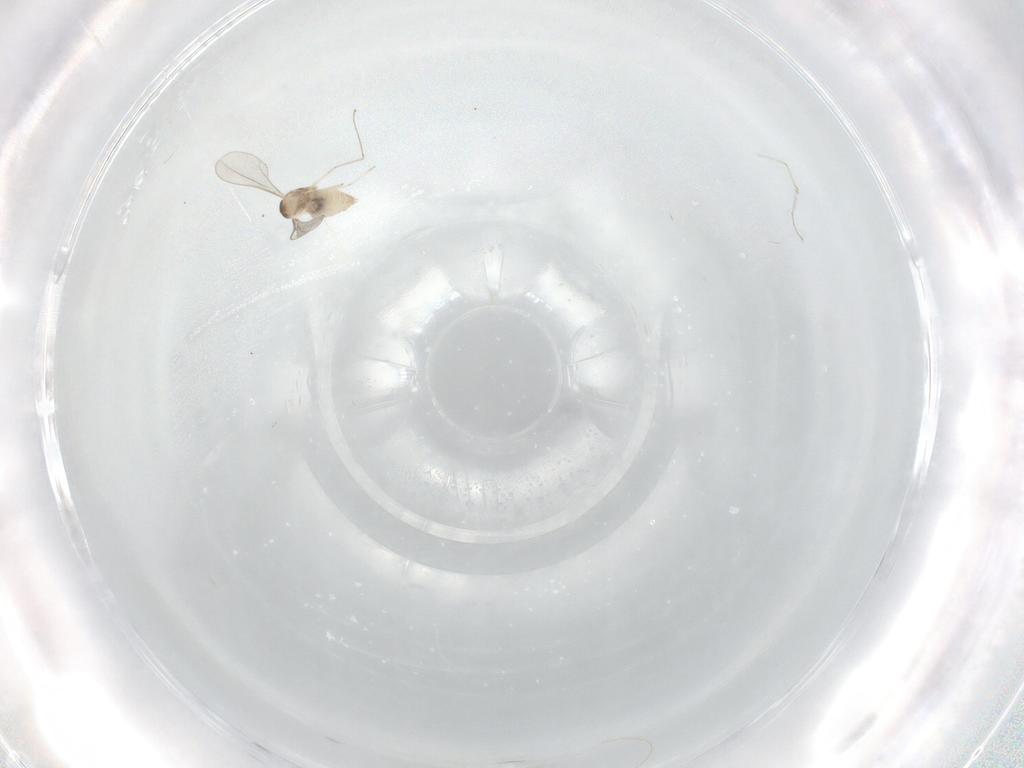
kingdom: Animalia
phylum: Arthropoda
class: Insecta
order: Diptera
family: Cecidomyiidae
